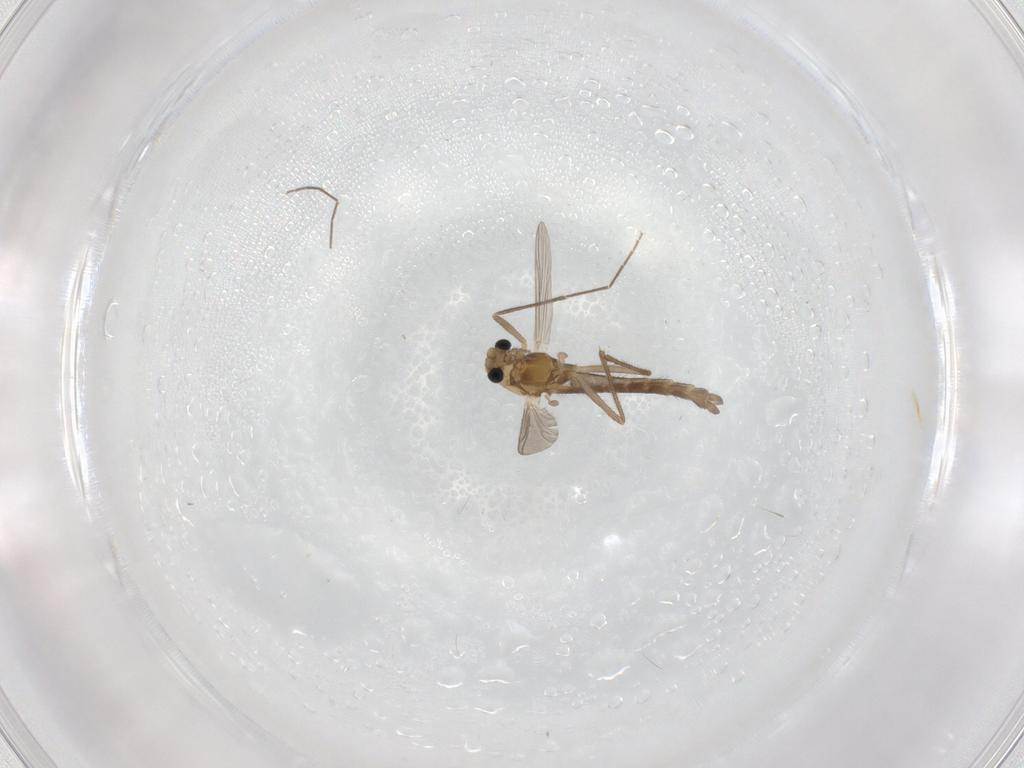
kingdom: Animalia
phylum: Arthropoda
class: Insecta
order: Diptera
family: Chironomidae
